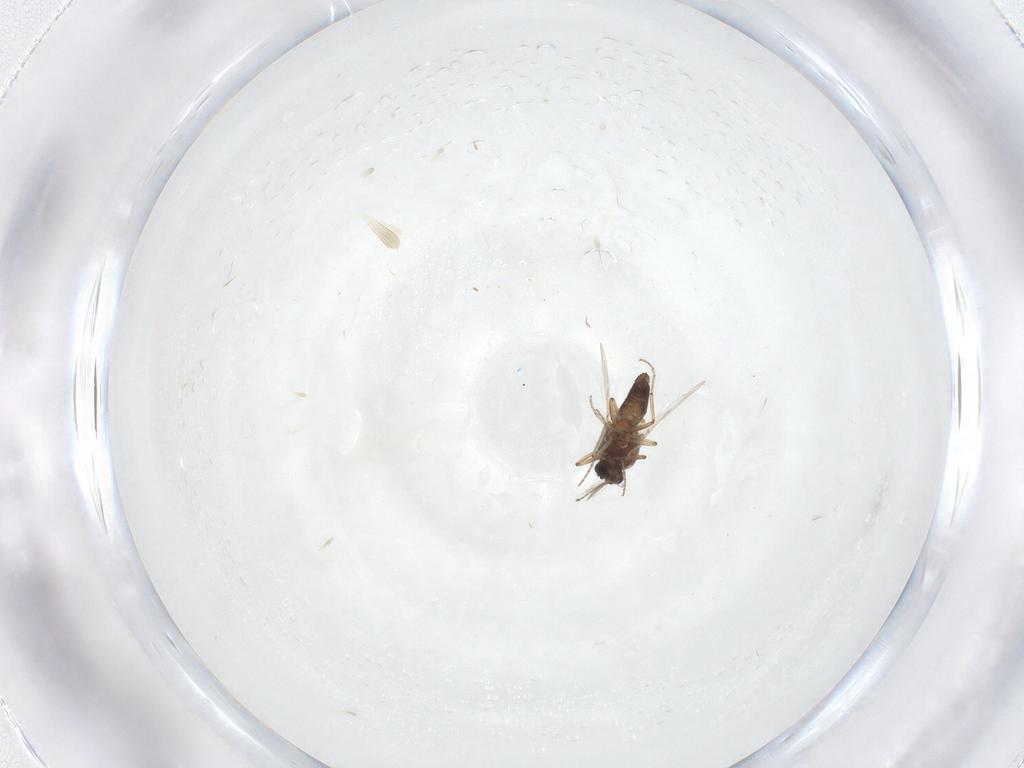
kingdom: Animalia
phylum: Arthropoda
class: Insecta
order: Diptera
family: Ceratopogonidae
